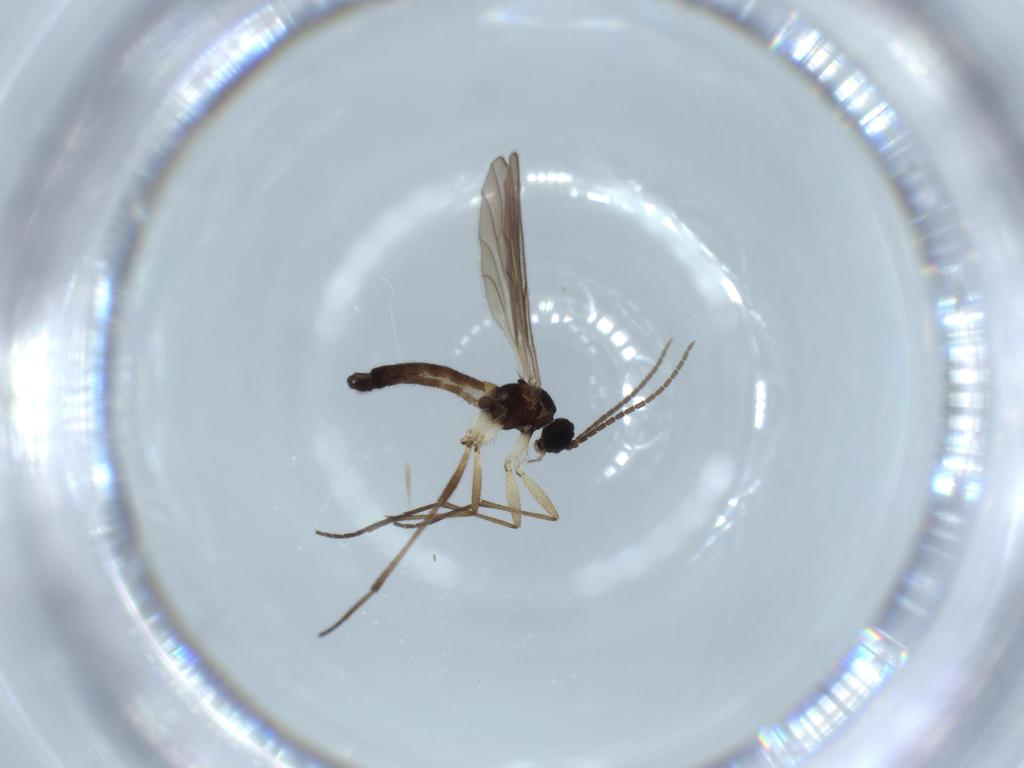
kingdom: Animalia
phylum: Arthropoda
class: Insecta
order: Diptera
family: Sciaridae
